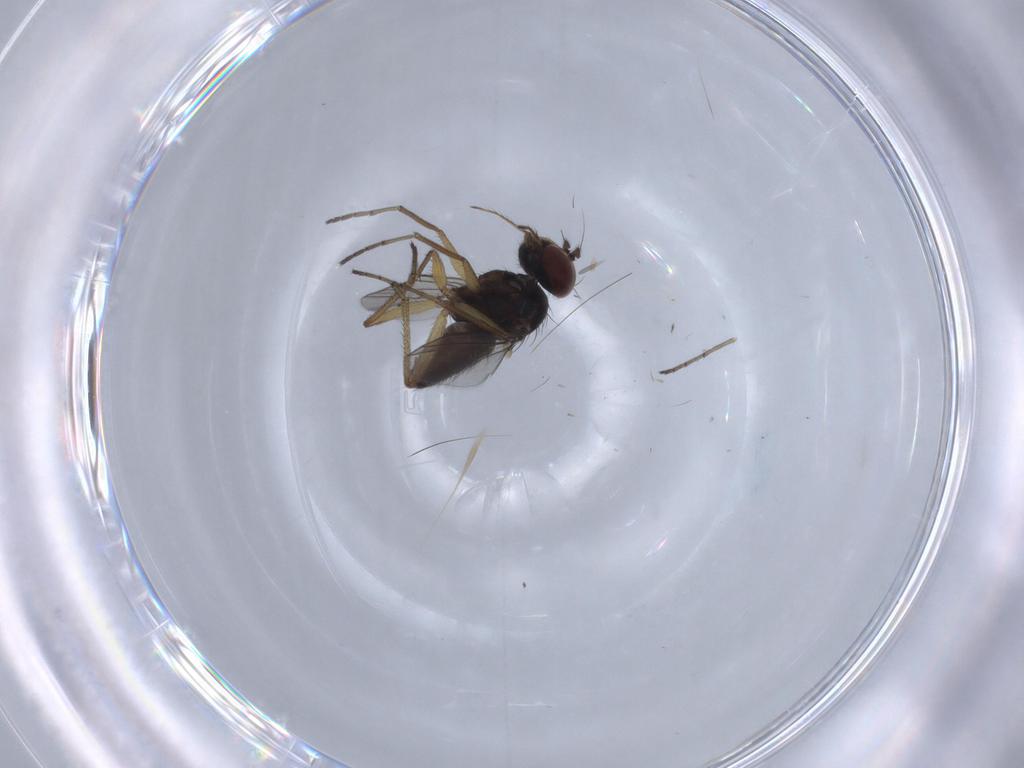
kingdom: Animalia
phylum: Arthropoda
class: Insecta
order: Diptera
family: Dolichopodidae
